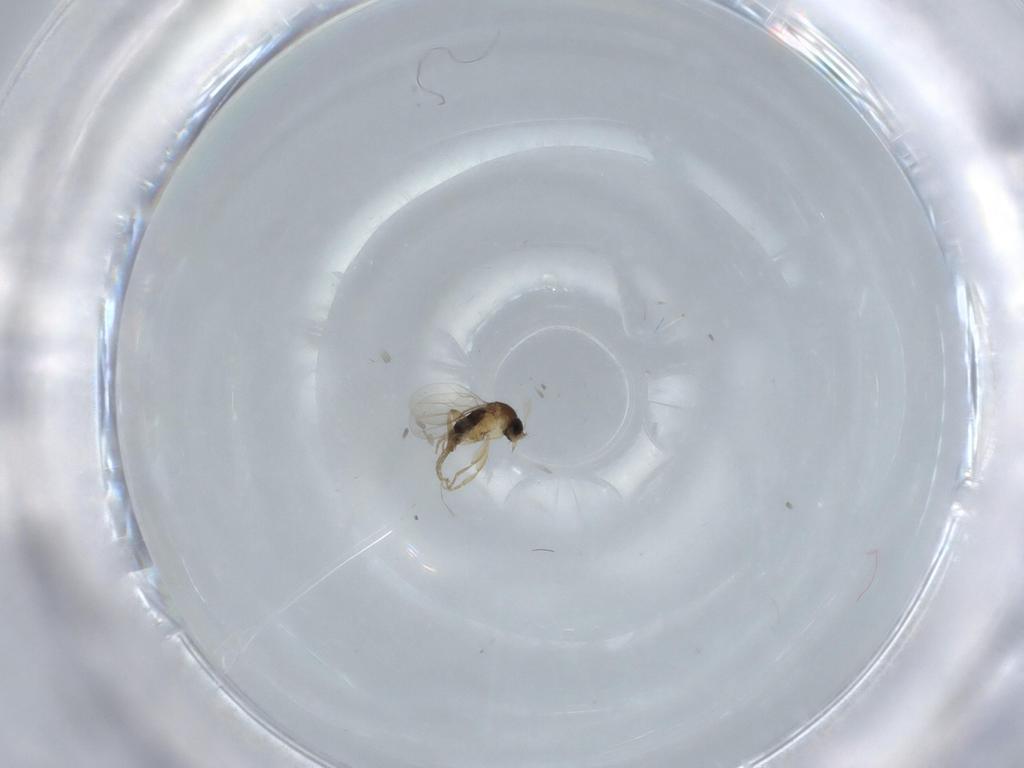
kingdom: Animalia
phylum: Arthropoda
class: Insecta
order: Diptera
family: Phoridae
